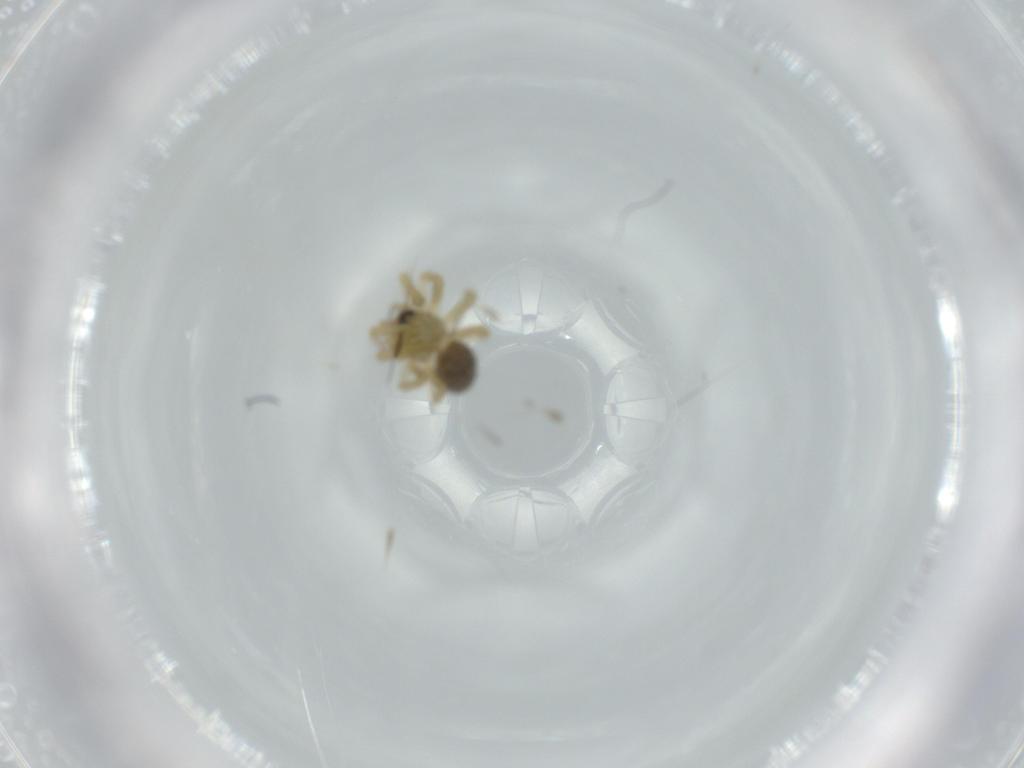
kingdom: Animalia
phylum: Arthropoda
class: Arachnida
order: Araneae
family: Linyphiidae
